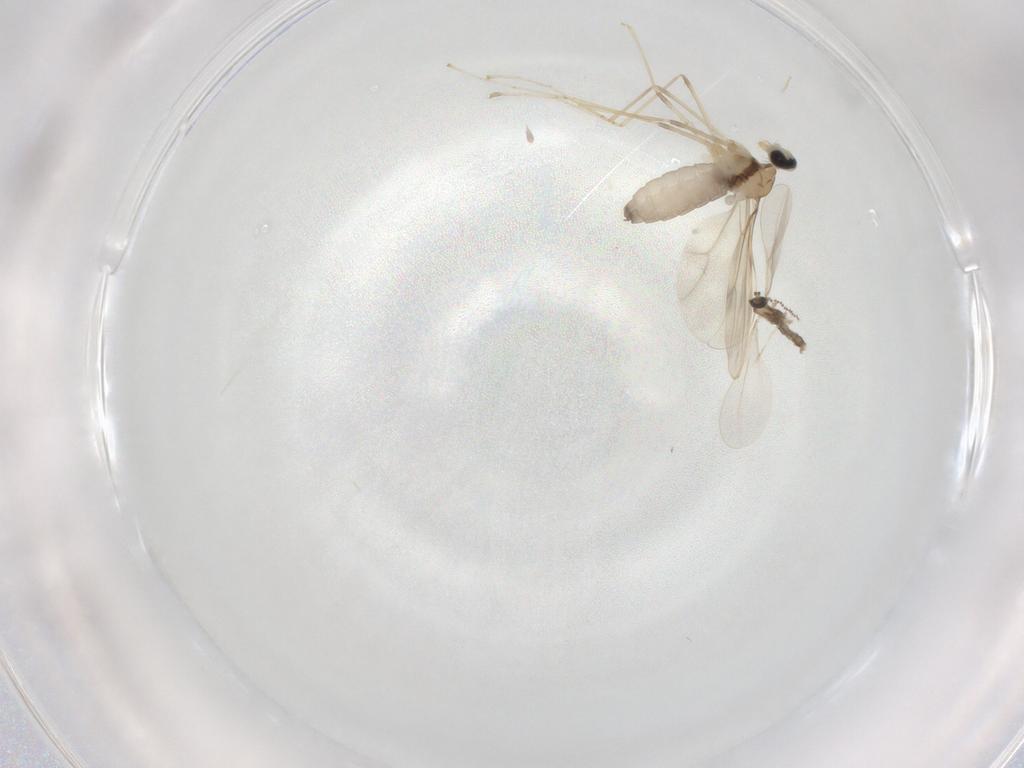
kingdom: Animalia
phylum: Arthropoda
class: Insecta
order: Diptera
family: Cecidomyiidae
